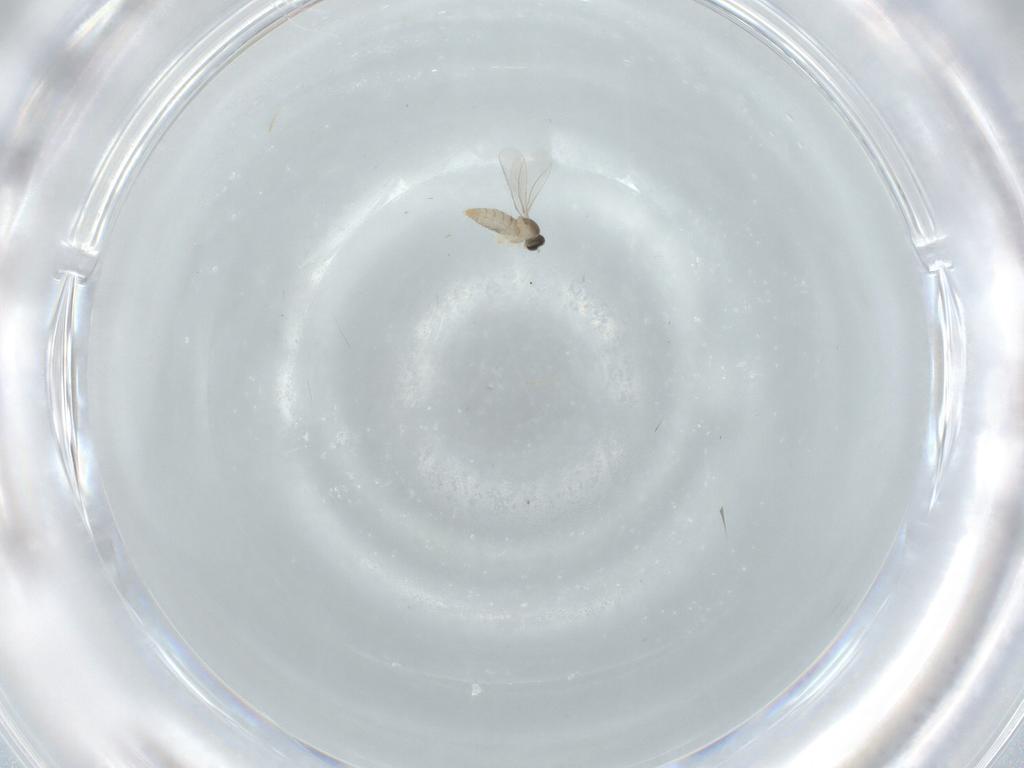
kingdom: Animalia
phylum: Arthropoda
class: Insecta
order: Diptera
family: Cecidomyiidae
